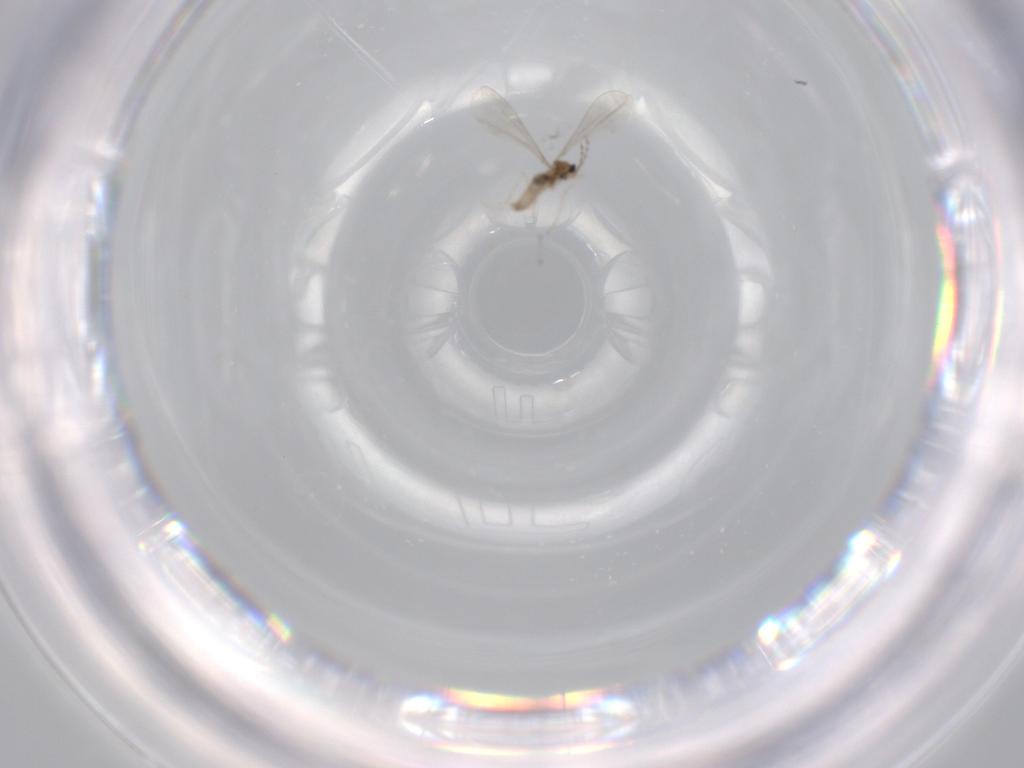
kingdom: Animalia
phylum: Arthropoda
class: Insecta
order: Diptera
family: Cecidomyiidae
